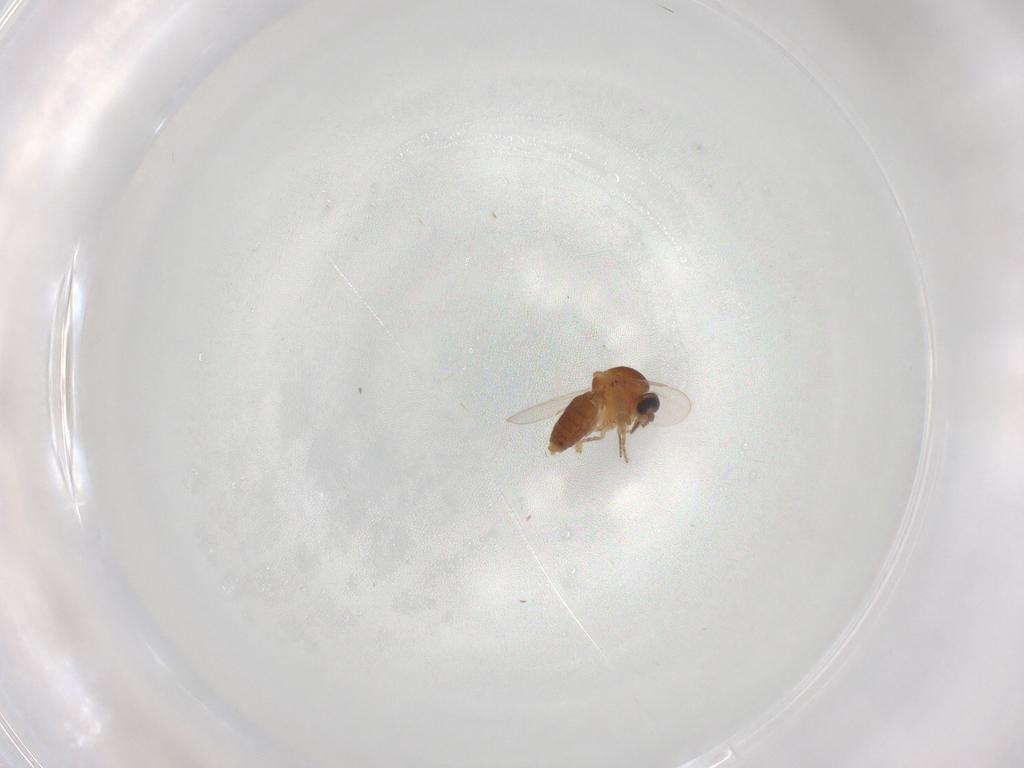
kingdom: Animalia
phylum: Arthropoda
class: Insecta
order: Diptera
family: Ceratopogonidae
